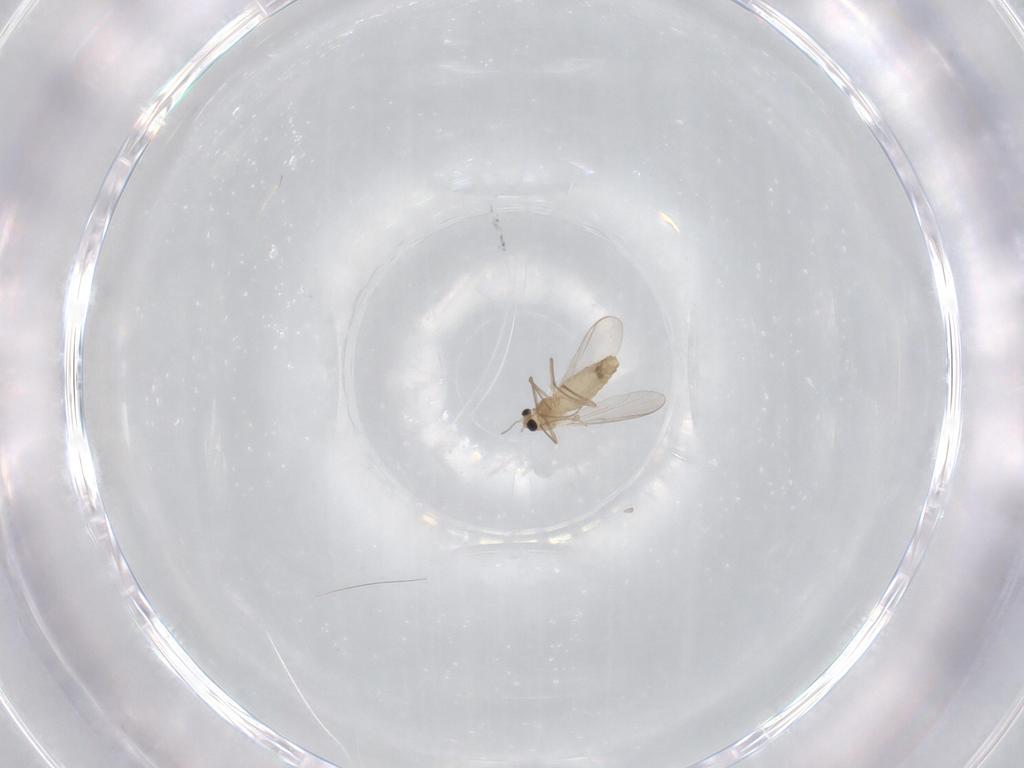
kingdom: Animalia
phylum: Arthropoda
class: Insecta
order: Diptera
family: Chironomidae
